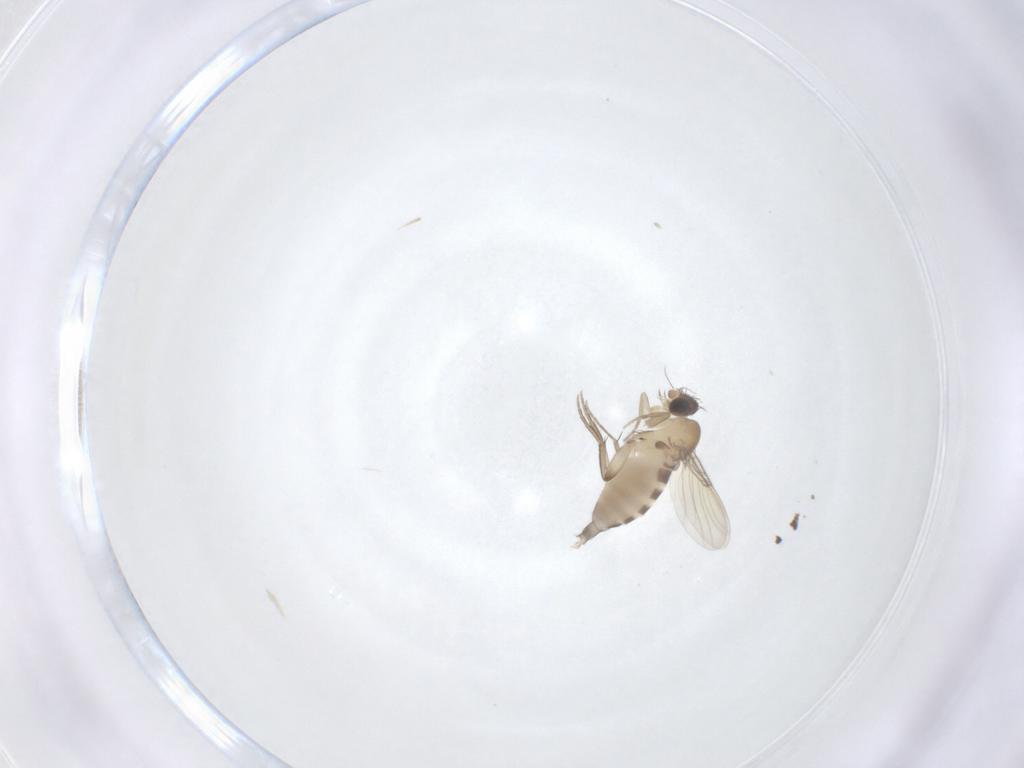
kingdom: Animalia
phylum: Arthropoda
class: Insecta
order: Diptera
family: Phoridae
